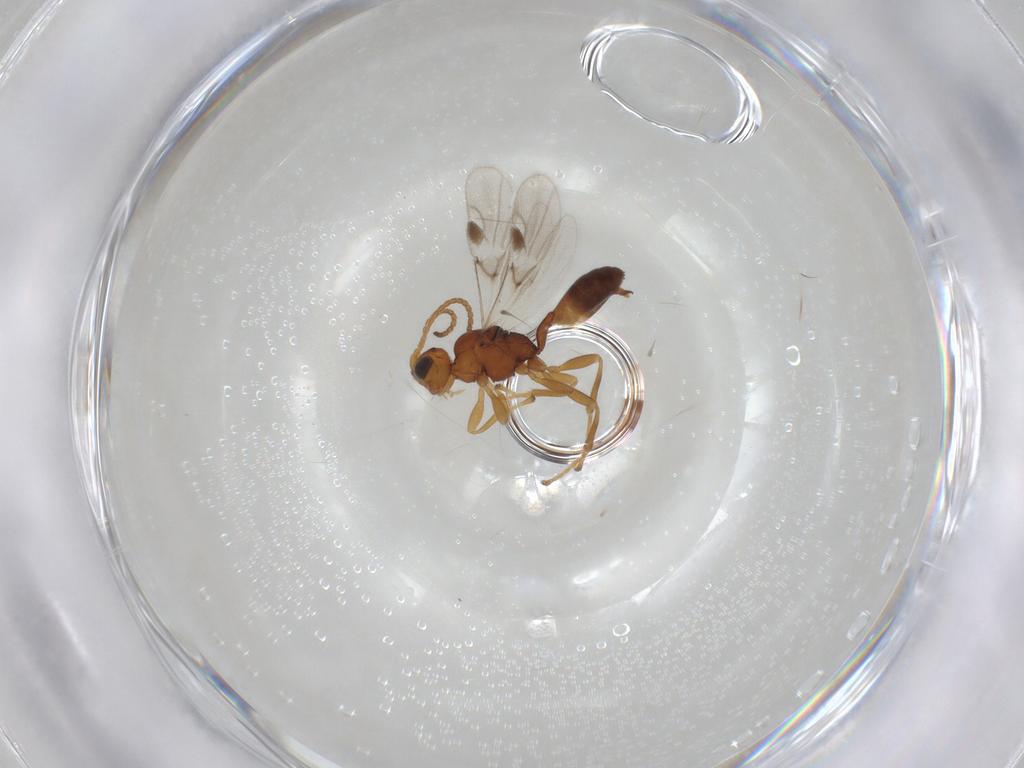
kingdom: Animalia
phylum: Arthropoda
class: Insecta
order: Hymenoptera
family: Braconidae
